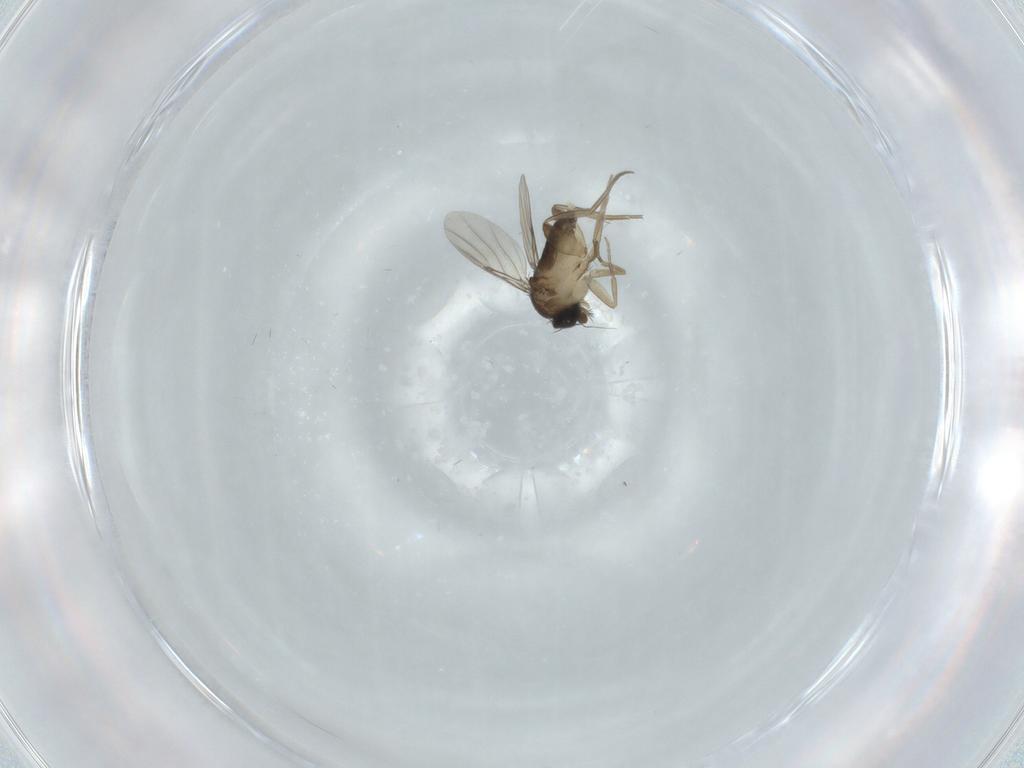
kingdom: Animalia
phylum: Arthropoda
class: Insecta
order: Diptera
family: Phoridae
